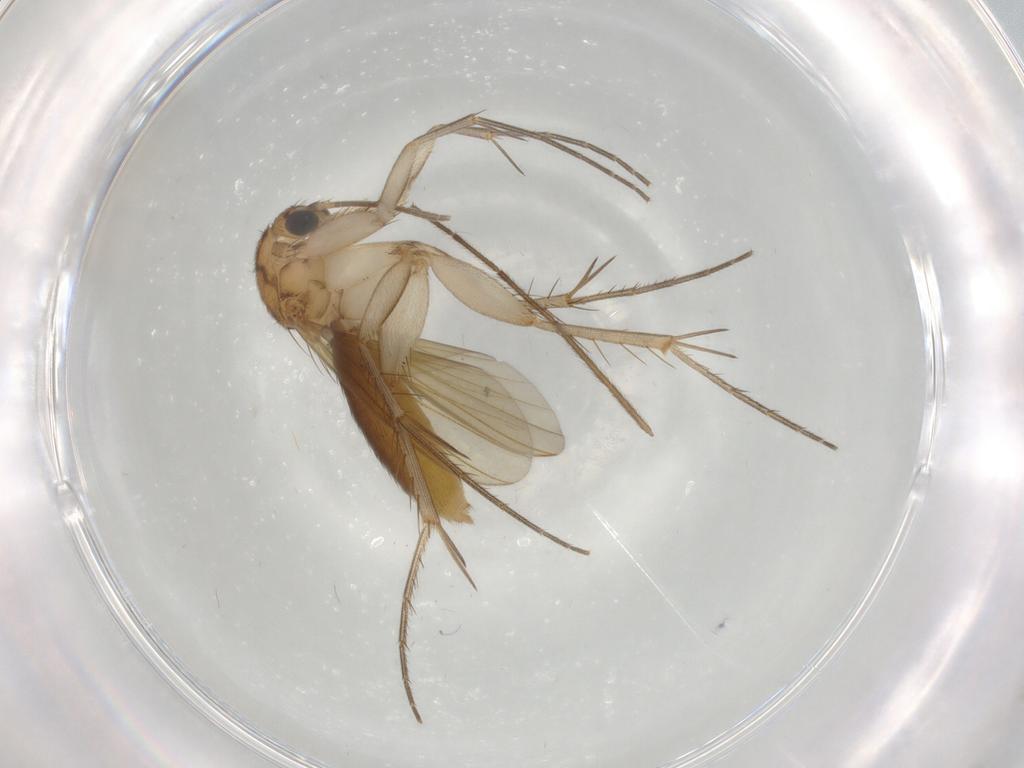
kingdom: Animalia
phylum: Arthropoda
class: Insecta
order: Diptera
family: Mycetophilidae
